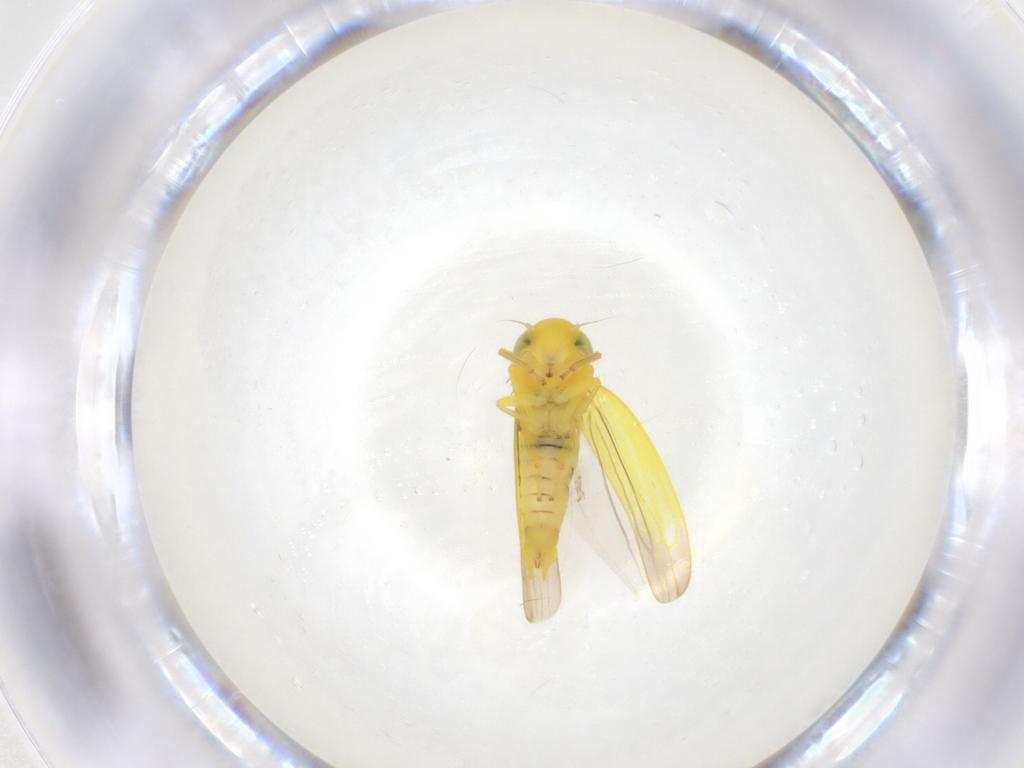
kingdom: Animalia
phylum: Arthropoda
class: Insecta
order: Hemiptera
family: Cicadellidae
